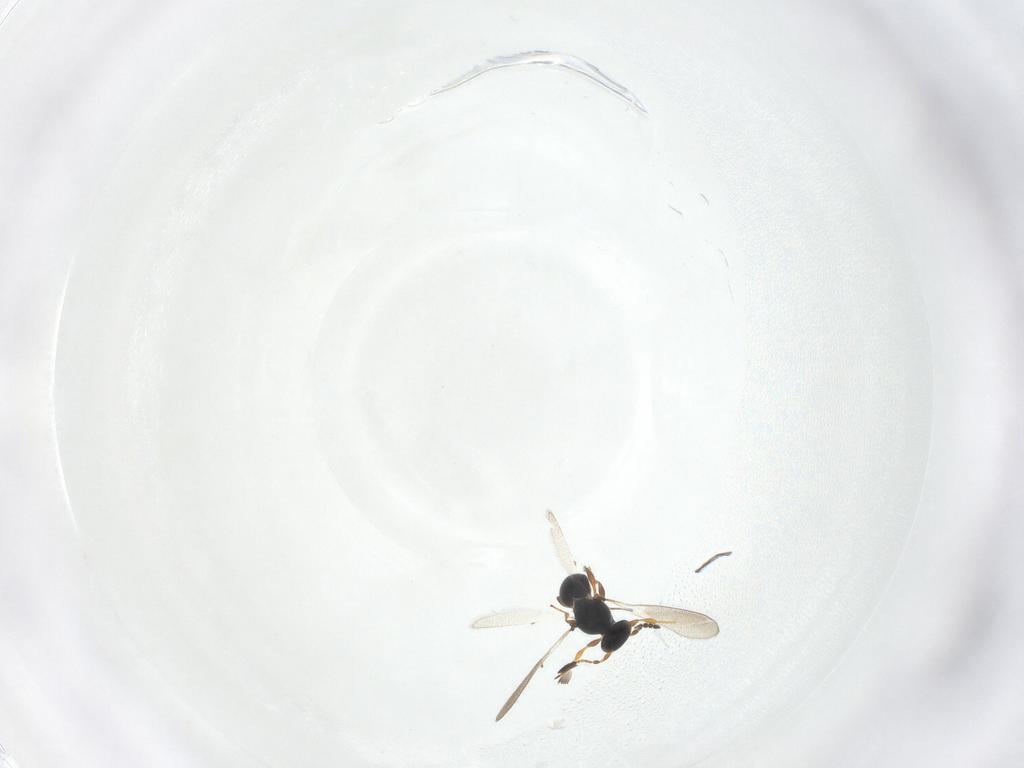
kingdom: Animalia
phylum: Arthropoda
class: Insecta
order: Hymenoptera
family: Platygastridae
